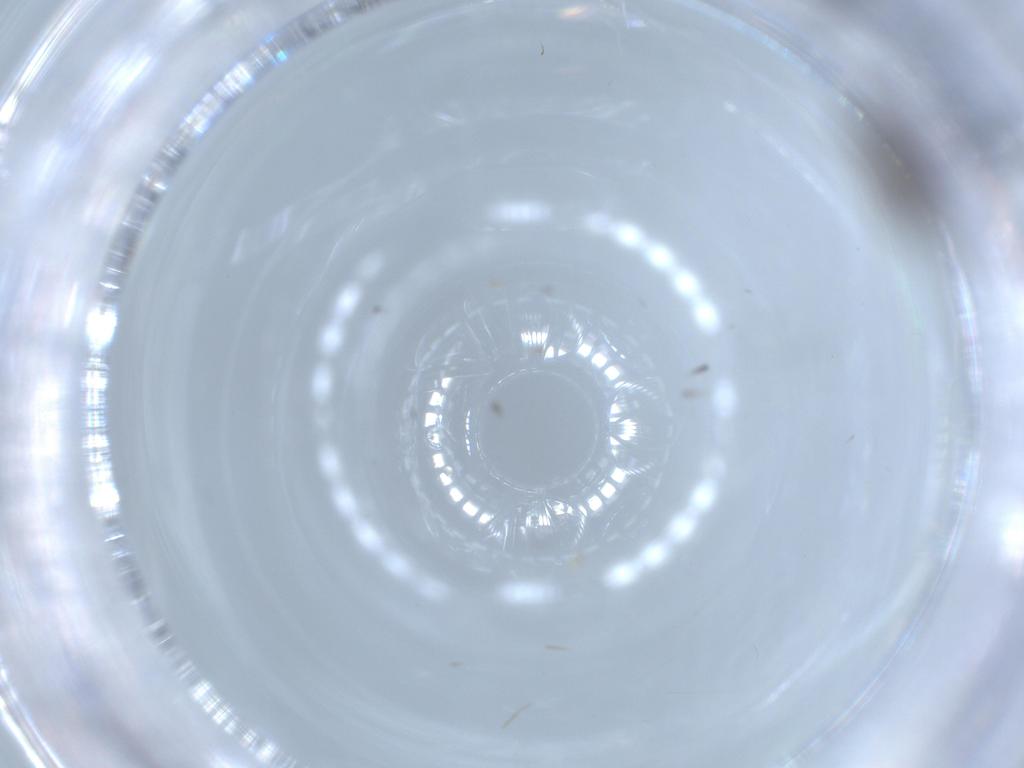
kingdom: Animalia
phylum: Arthropoda
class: Insecta
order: Diptera
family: Chironomidae
